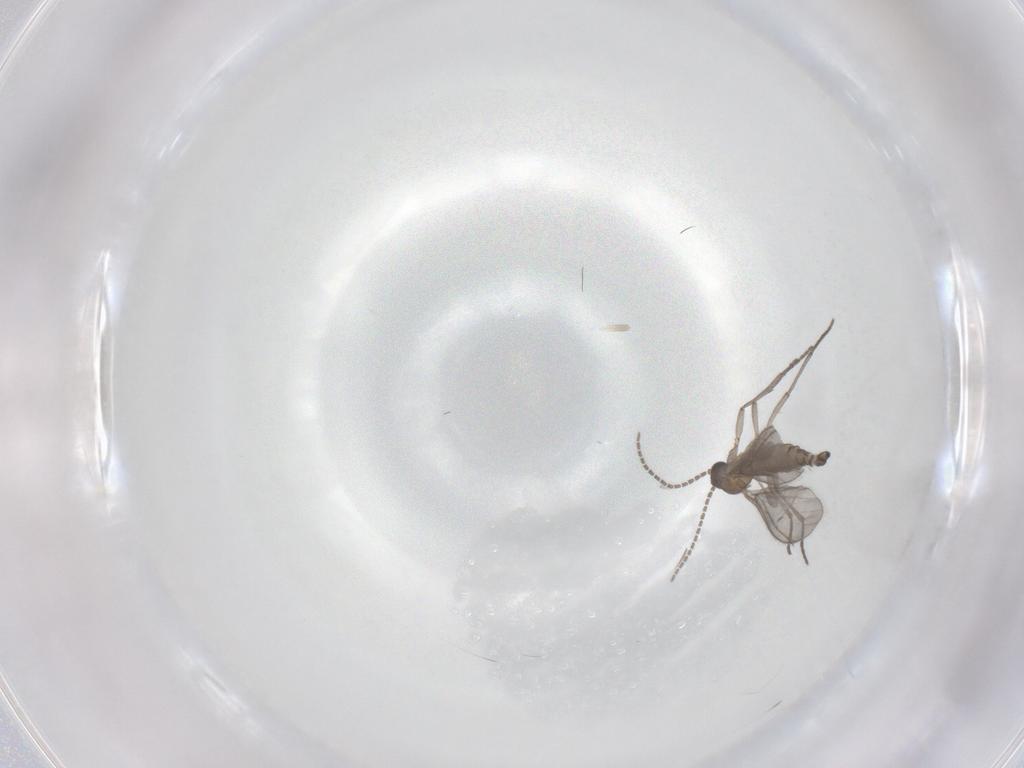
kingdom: Animalia
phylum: Arthropoda
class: Insecta
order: Diptera
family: Sciaridae
